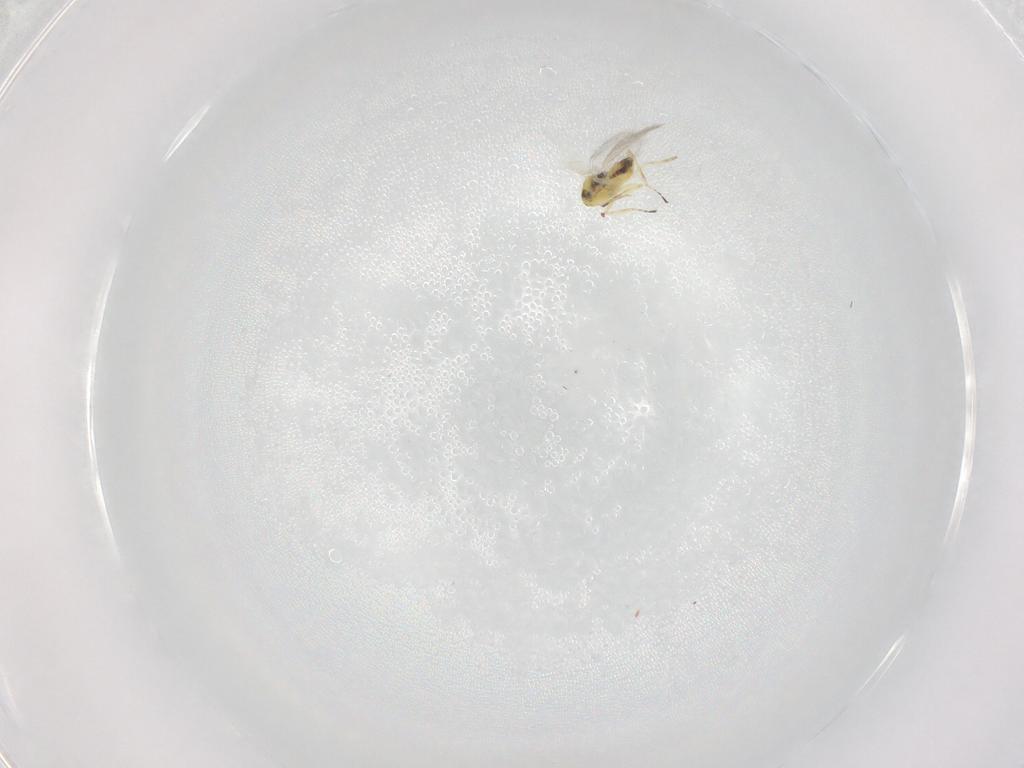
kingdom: Animalia
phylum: Arthropoda
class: Insecta
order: Hymenoptera
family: Eulophidae
